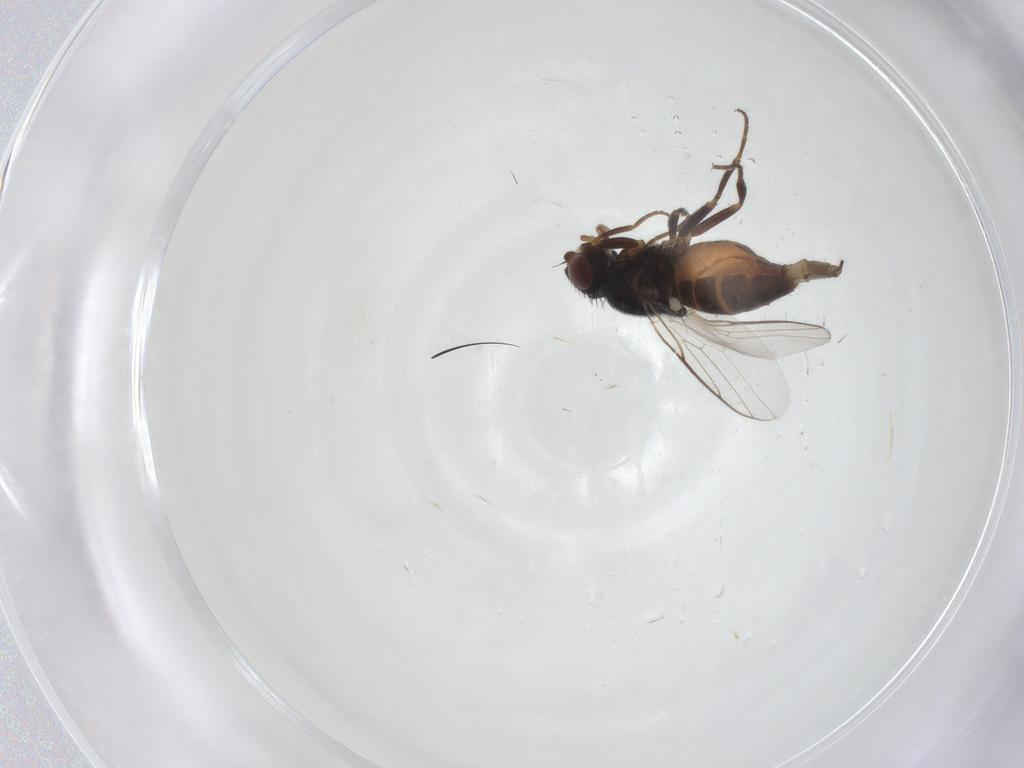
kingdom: Animalia
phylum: Arthropoda
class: Insecta
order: Diptera
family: Chloropidae
